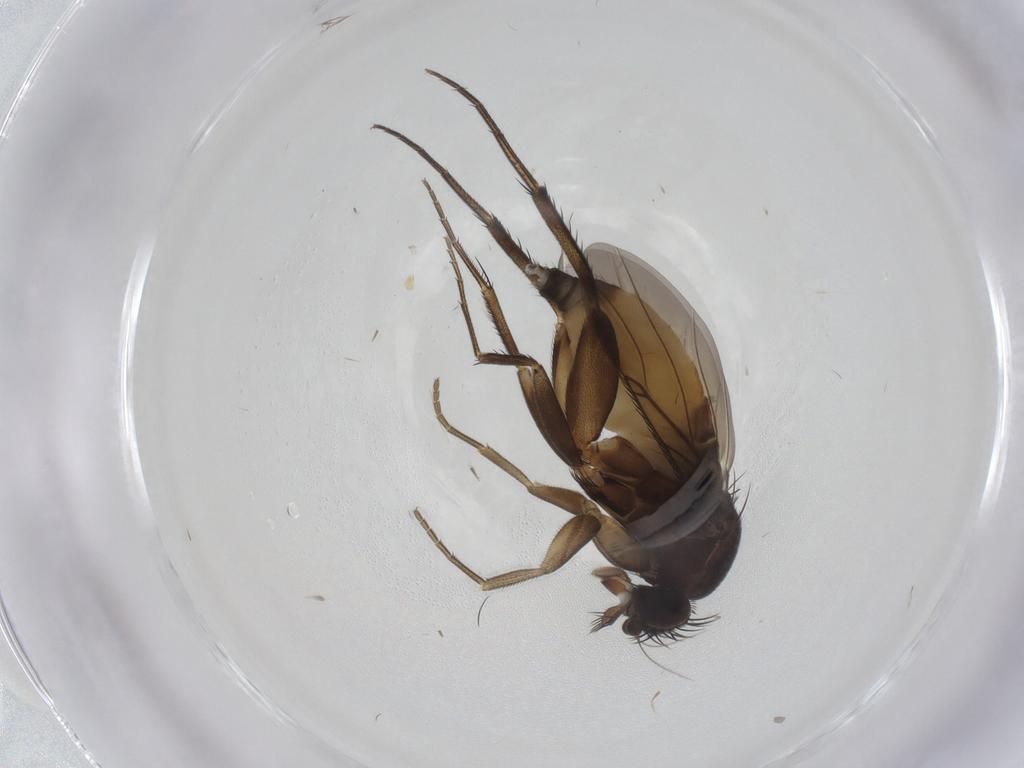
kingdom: Animalia
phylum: Arthropoda
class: Insecta
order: Diptera
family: Phoridae
